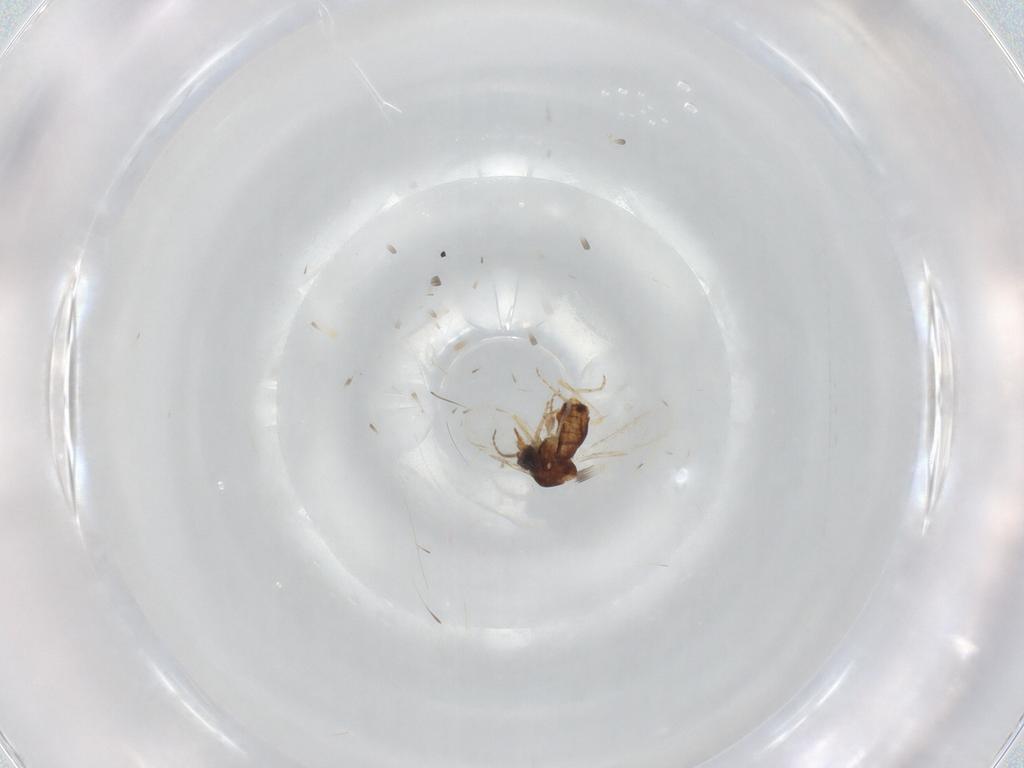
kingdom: Animalia
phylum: Arthropoda
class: Insecta
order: Diptera
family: Ceratopogonidae
